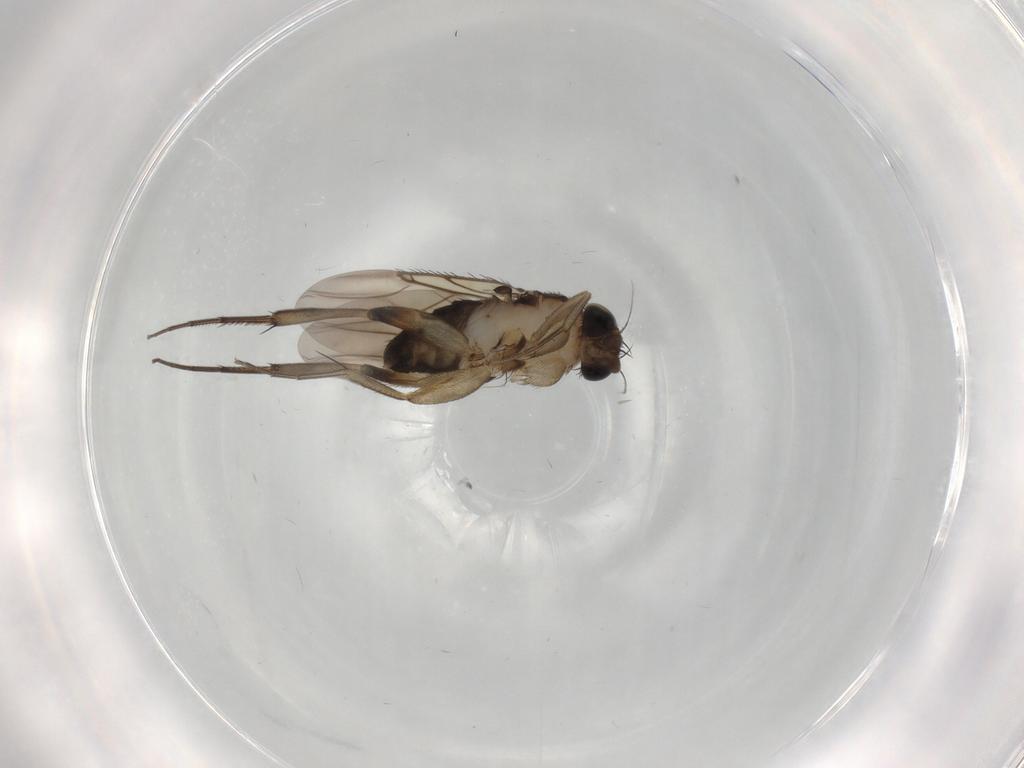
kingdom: Animalia
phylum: Arthropoda
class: Insecta
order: Diptera
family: Phoridae
